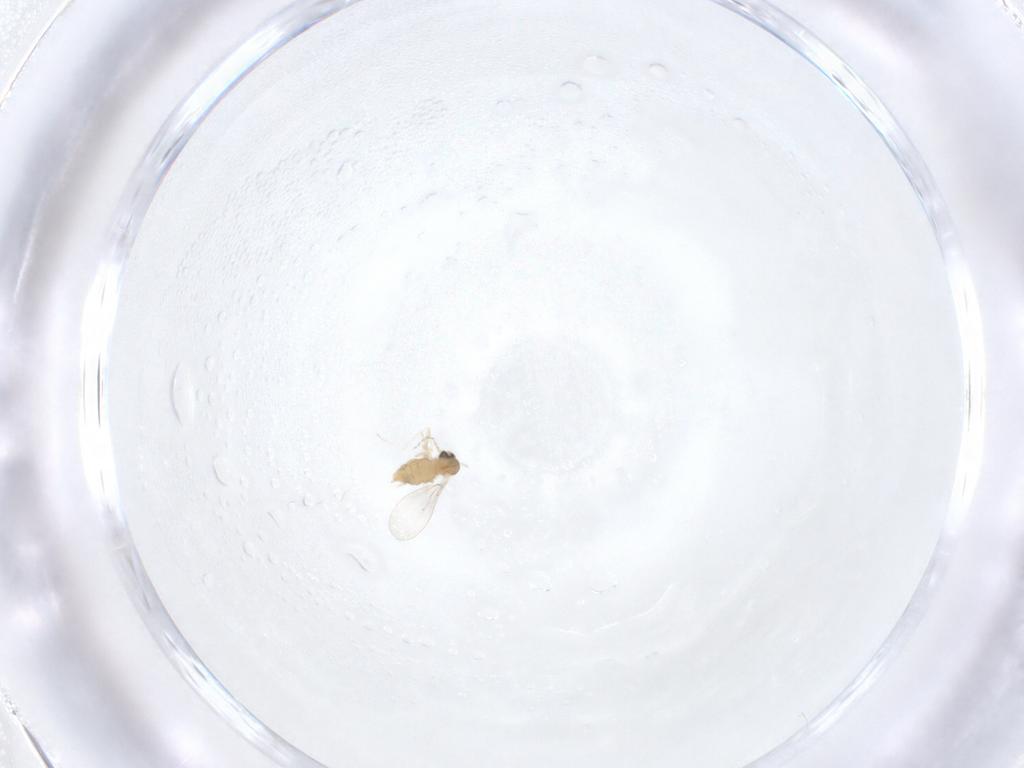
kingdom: Animalia
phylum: Arthropoda
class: Insecta
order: Diptera
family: Cecidomyiidae
